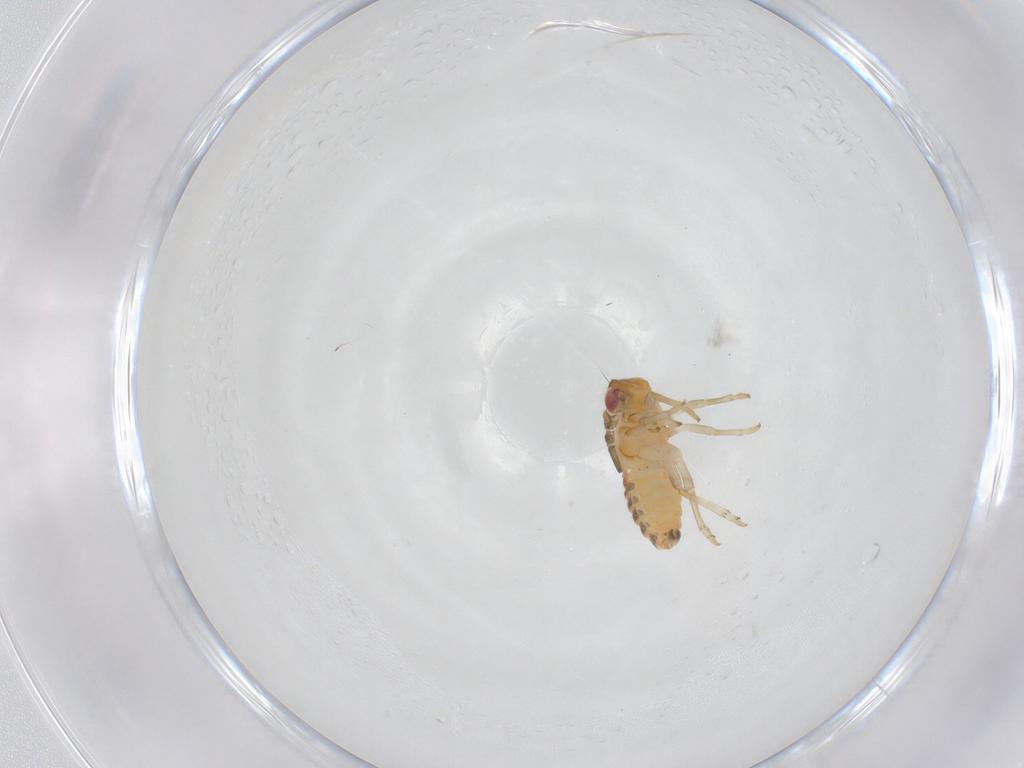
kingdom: Animalia
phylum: Arthropoda
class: Insecta
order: Hemiptera
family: Issidae
